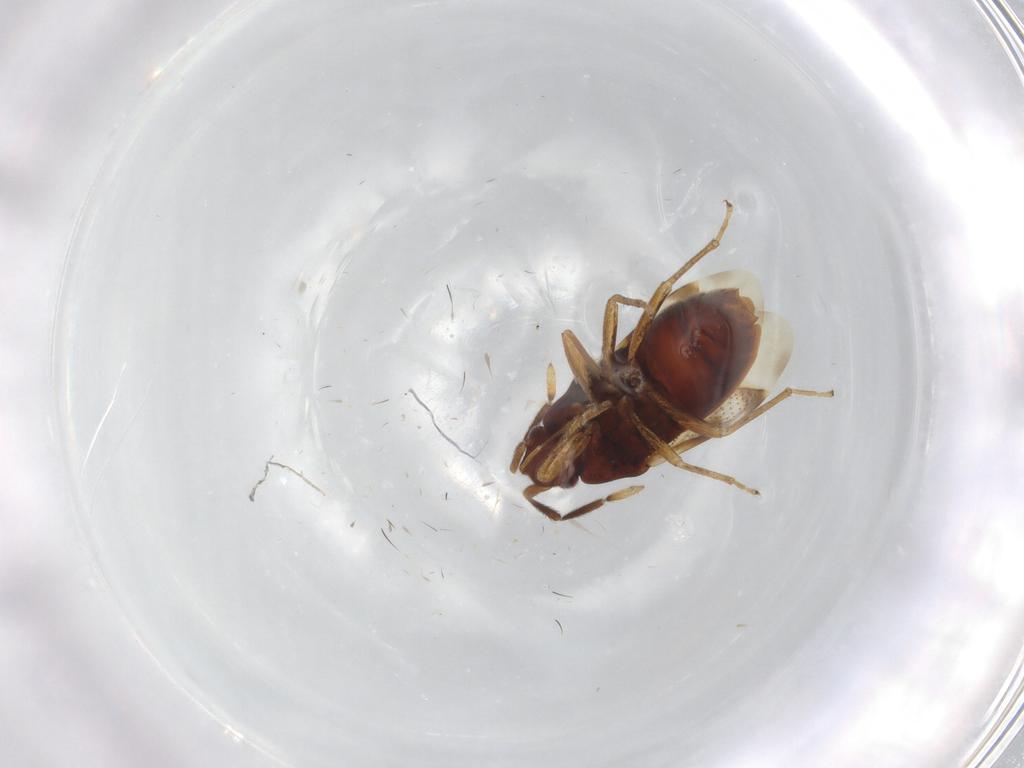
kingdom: Animalia
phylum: Arthropoda
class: Insecta
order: Hemiptera
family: Rhyparochromidae
